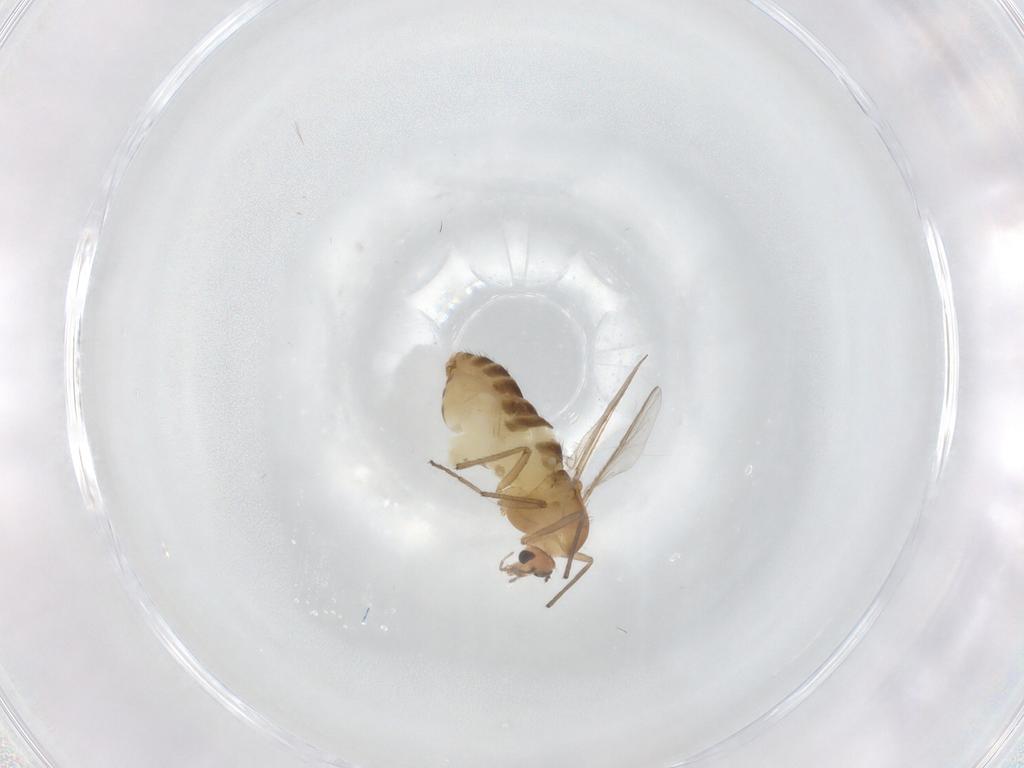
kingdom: Animalia
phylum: Arthropoda
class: Insecta
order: Diptera
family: Chironomidae
